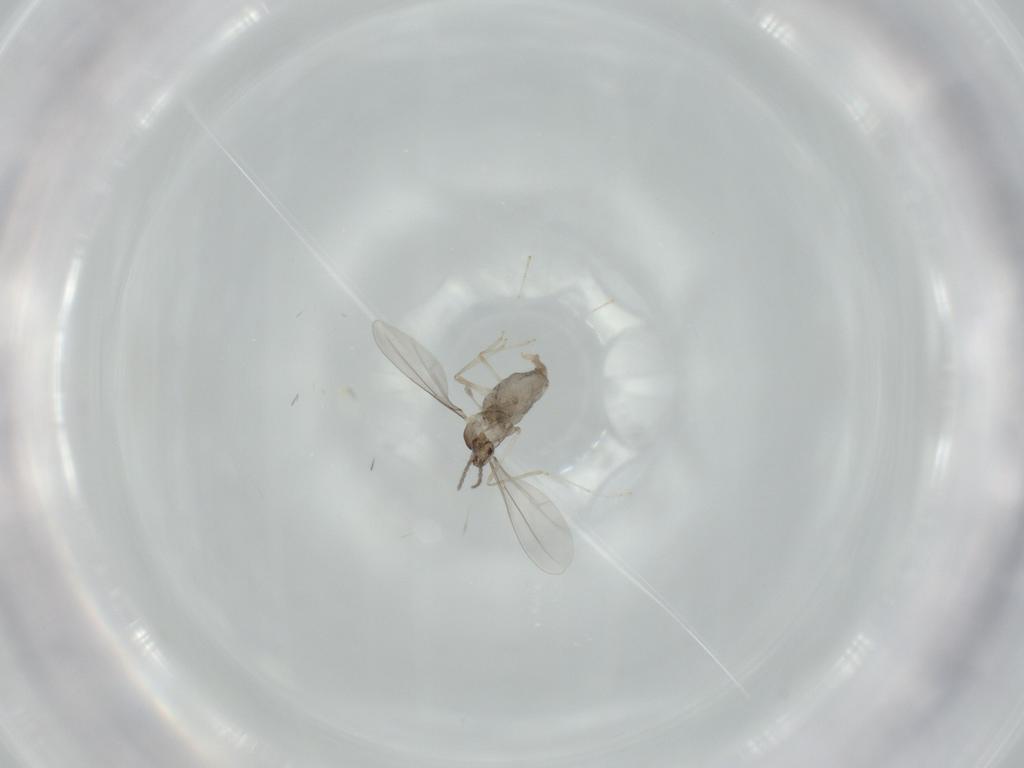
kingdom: Animalia
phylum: Arthropoda
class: Insecta
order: Diptera
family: Cecidomyiidae
